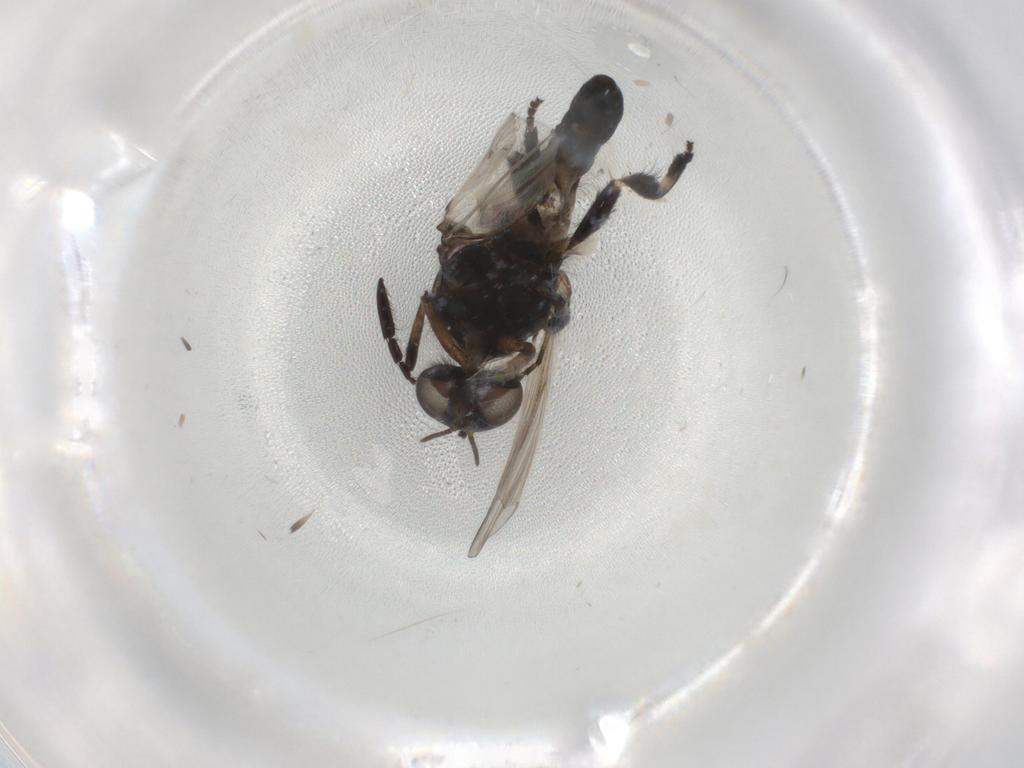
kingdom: Animalia
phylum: Arthropoda
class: Insecta
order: Diptera
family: Simuliidae
